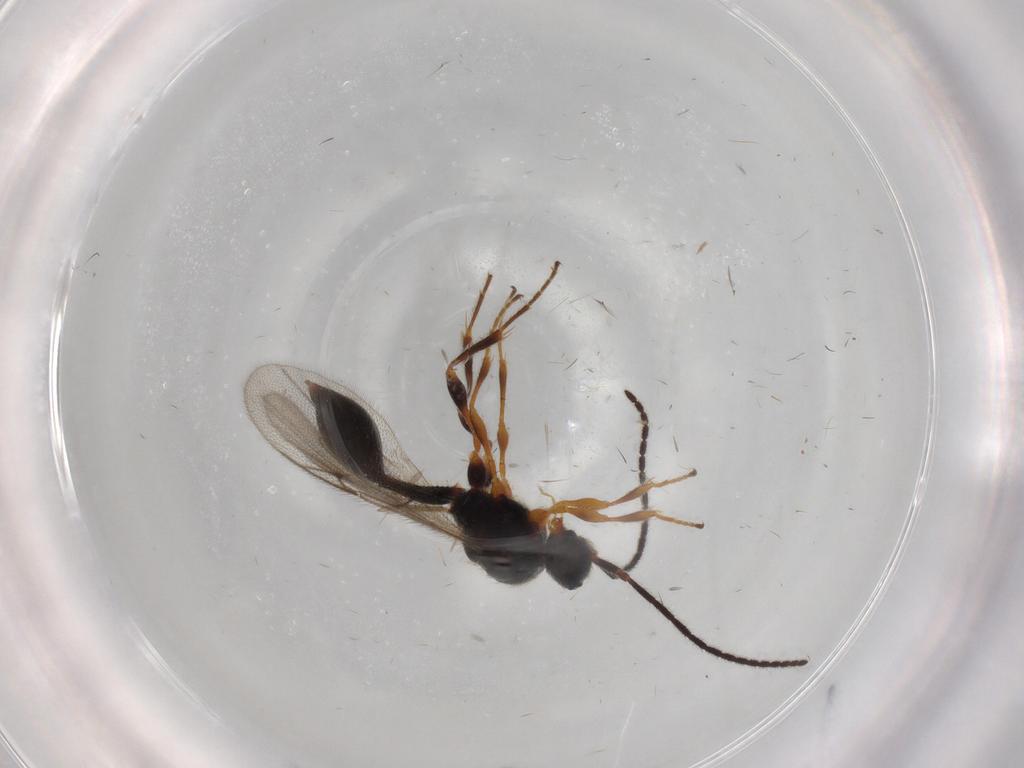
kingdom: Animalia
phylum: Arthropoda
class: Insecta
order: Hymenoptera
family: Diapriidae
